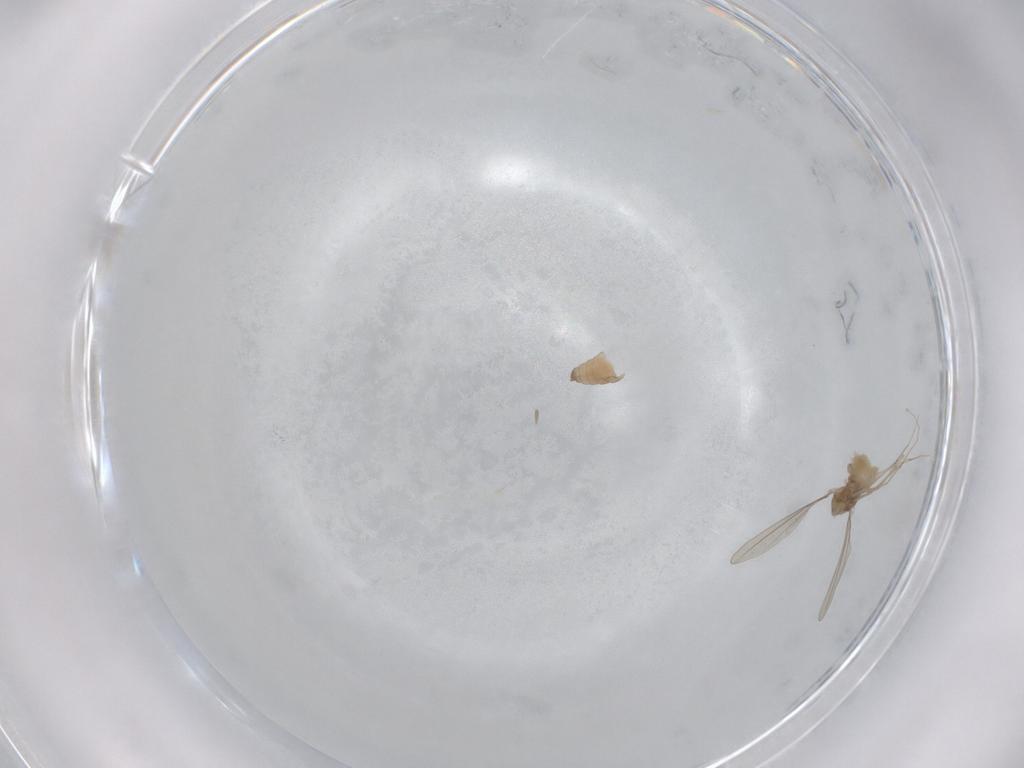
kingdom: Animalia
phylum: Arthropoda
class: Insecta
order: Diptera
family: Cecidomyiidae
